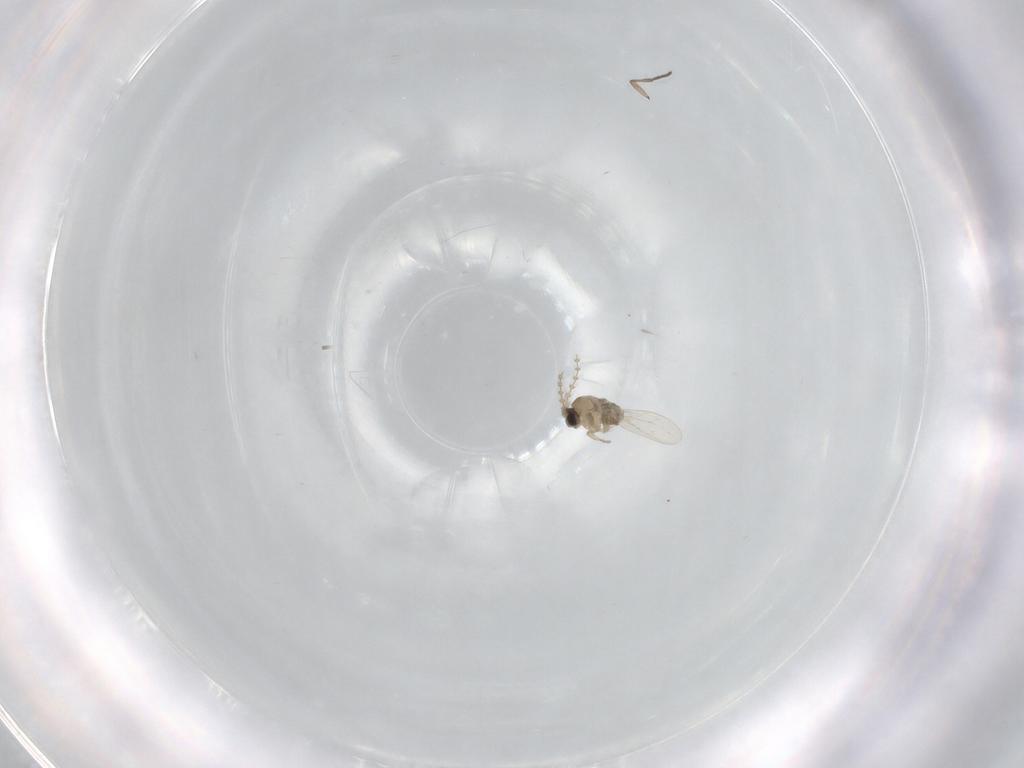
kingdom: Animalia
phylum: Arthropoda
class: Insecta
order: Diptera
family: Cecidomyiidae
